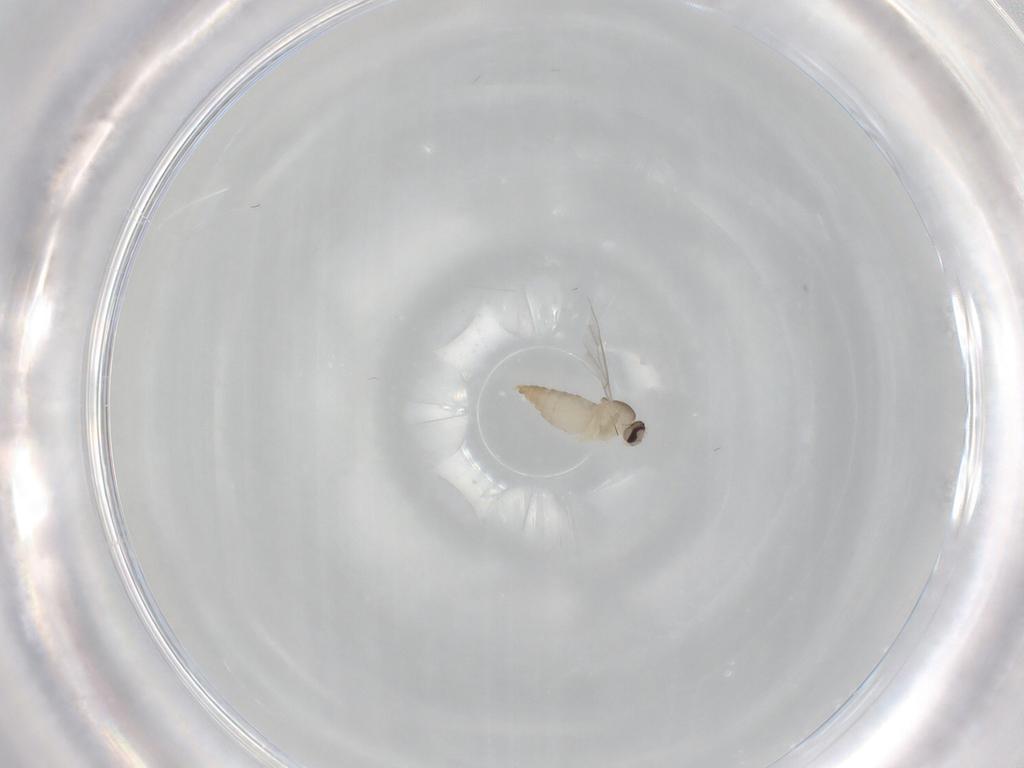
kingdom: Animalia
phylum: Arthropoda
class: Insecta
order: Diptera
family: Cecidomyiidae
